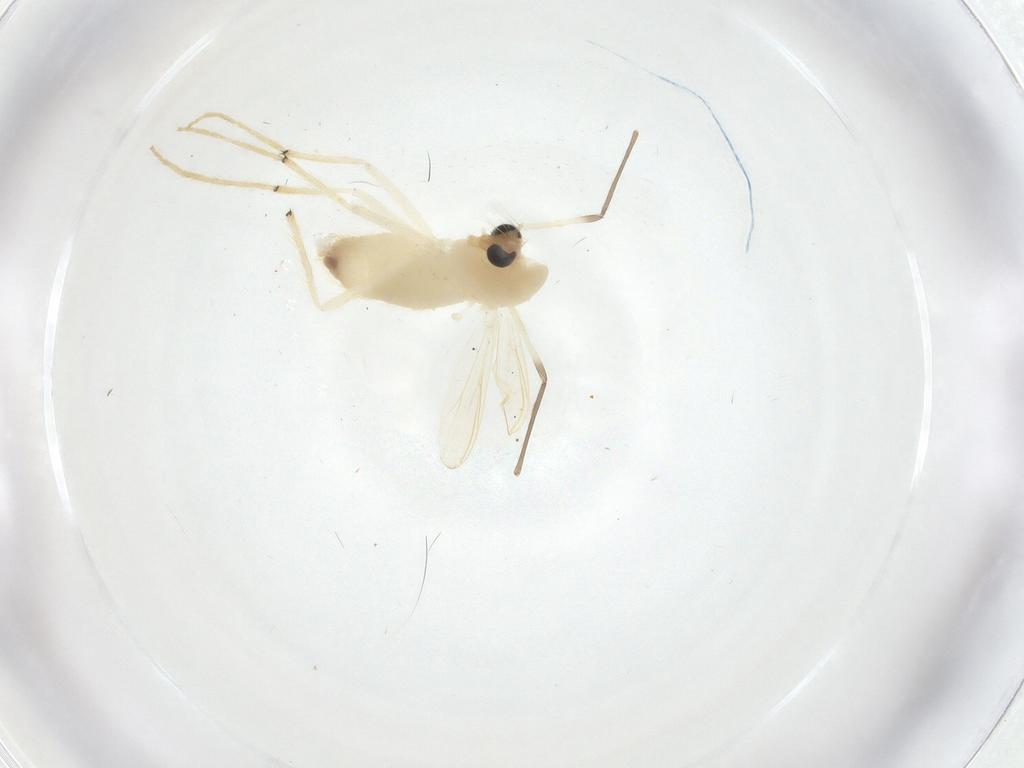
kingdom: Animalia
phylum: Arthropoda
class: Insecta
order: Diptera
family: Chironomidae
